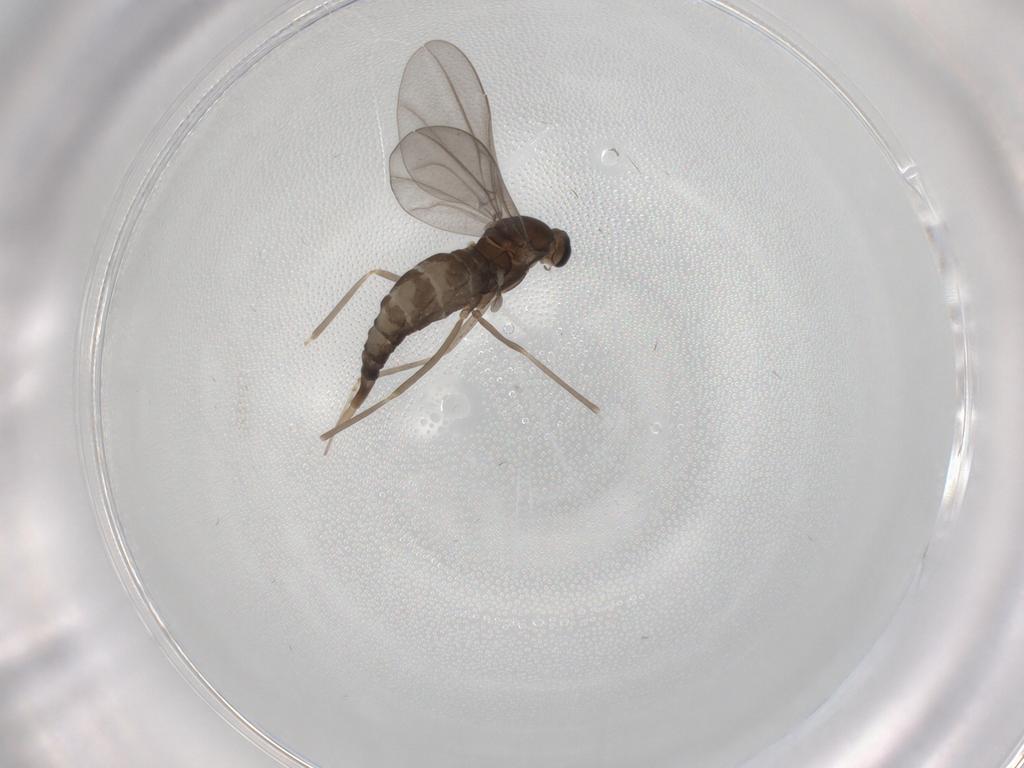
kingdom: Animalia
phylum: Arthropoda
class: Insecta
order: Diptera
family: Cecidomyiidae
